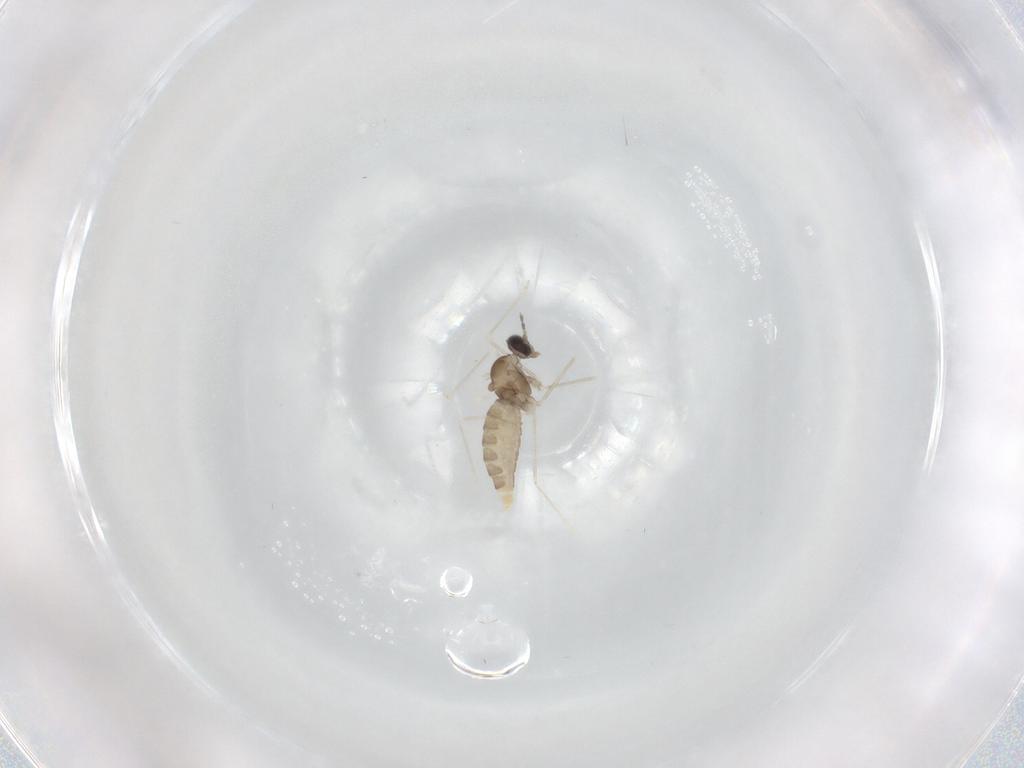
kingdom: Animalia
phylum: Arthropoda
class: Insecta
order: Diptera
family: Cecidomyiidae
